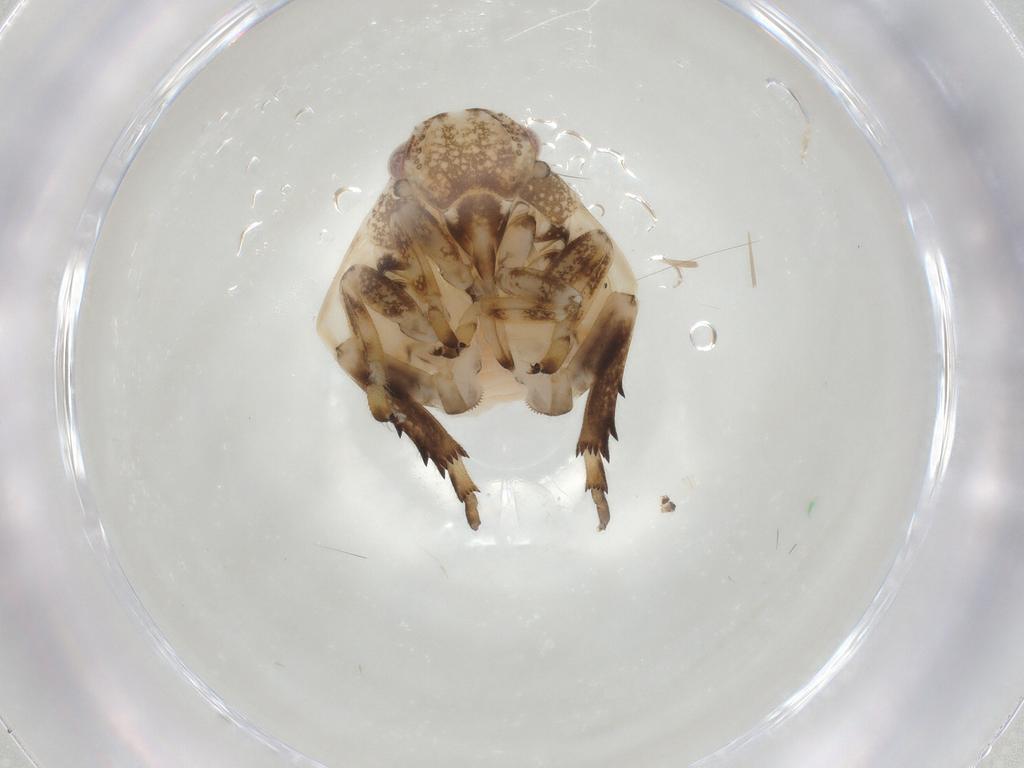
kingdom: Animalia
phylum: Arthropoda
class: Insecta
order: Hemiptera
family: Ricaniidae
